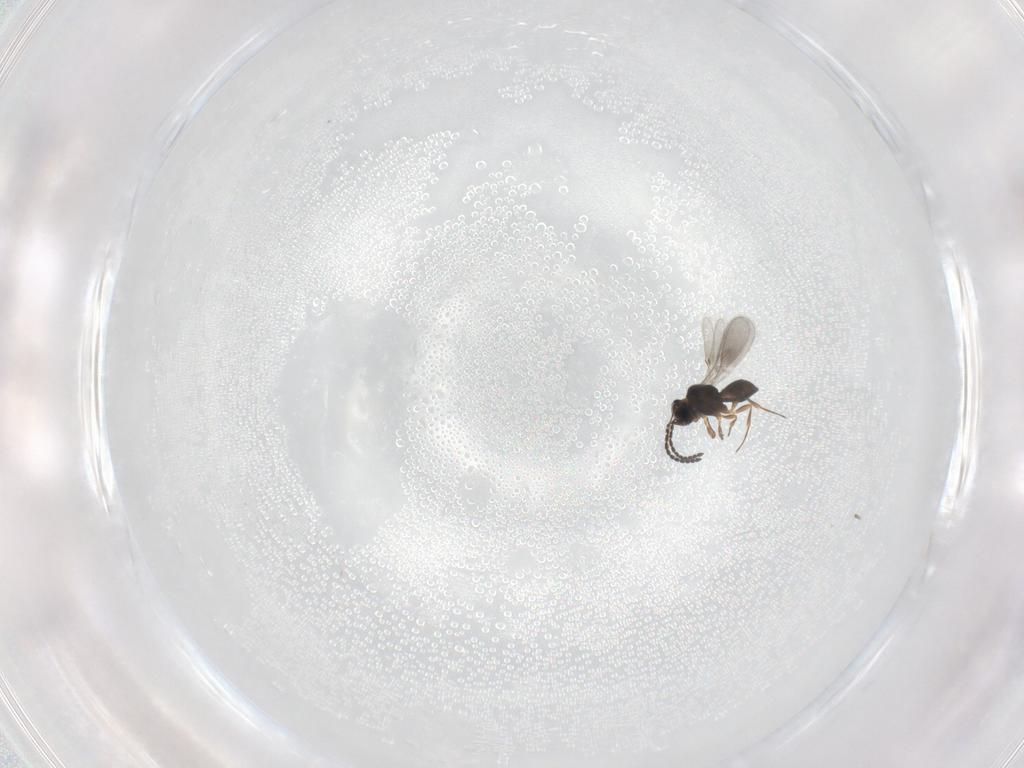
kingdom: Animalia
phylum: Arthropoda
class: Insecta
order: Hymenoptera
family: Scelionidae
